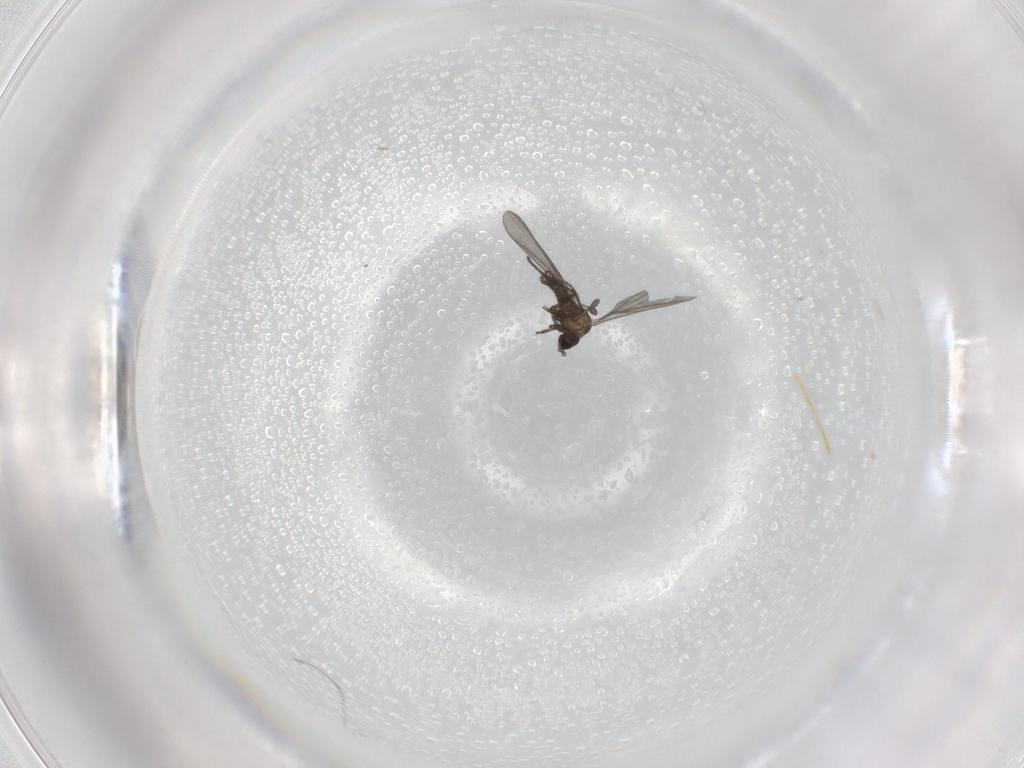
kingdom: Animalia
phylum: Arthropoda
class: Insecta
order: Diptera
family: Sciaridae
